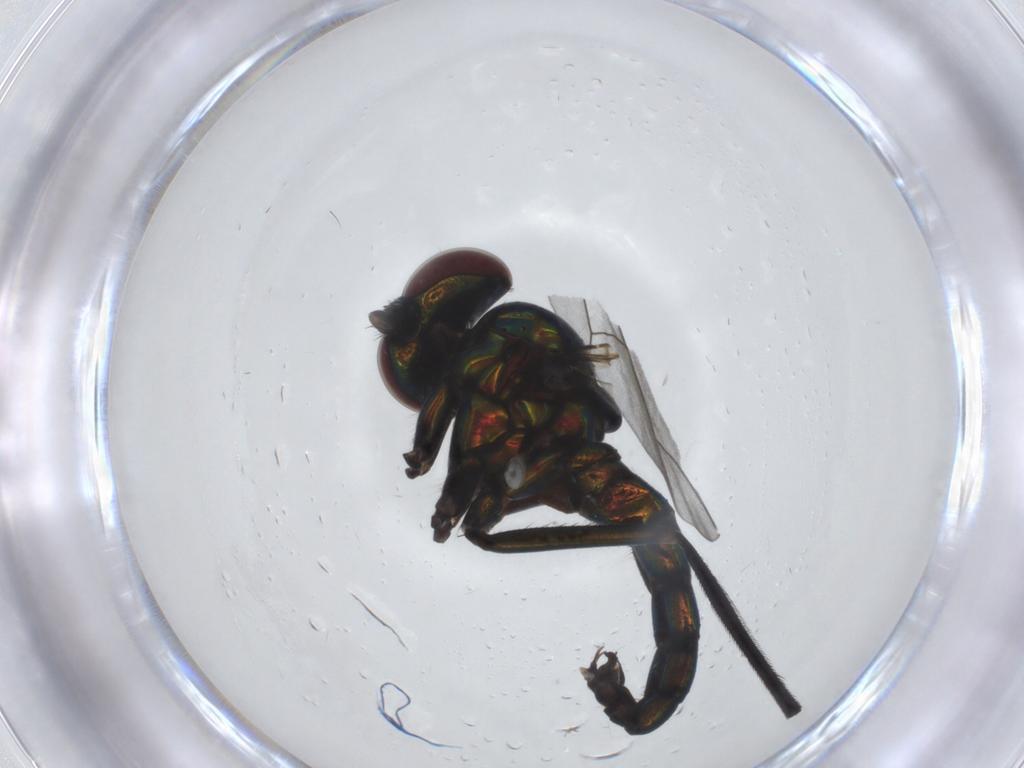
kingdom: Animalia
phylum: Arthropoda
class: Insecta
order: Diptera
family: Dolichopodidae
